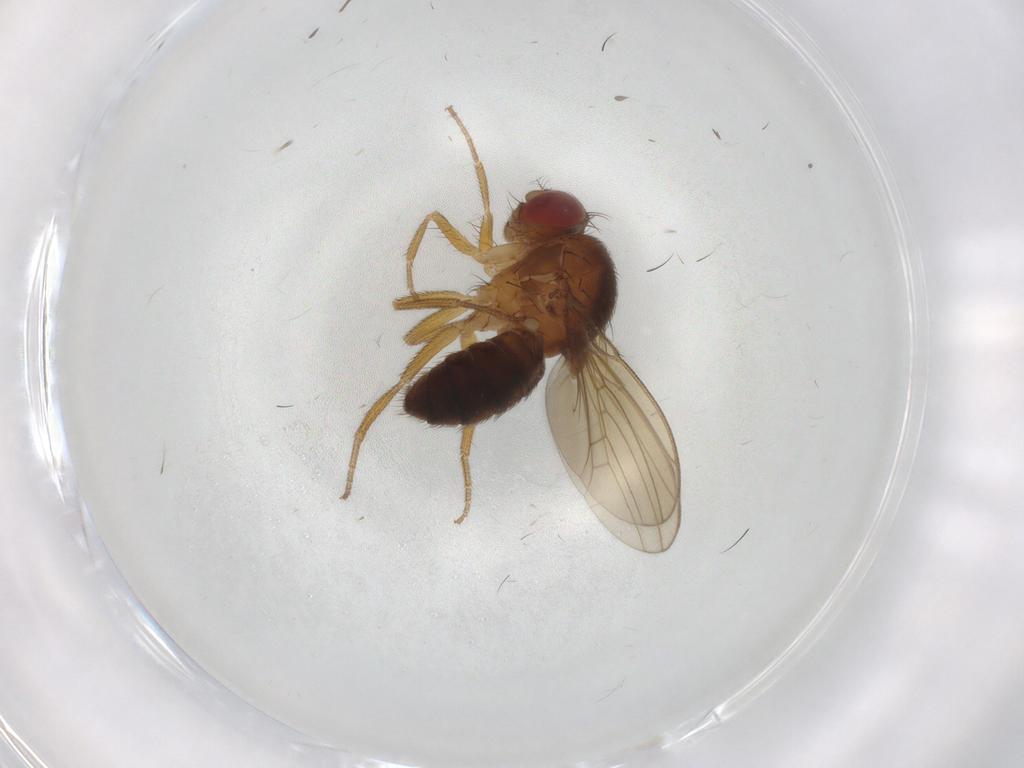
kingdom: Animalia
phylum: Arthropoda
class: Insecta
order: Diptera
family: Drosophilidae
